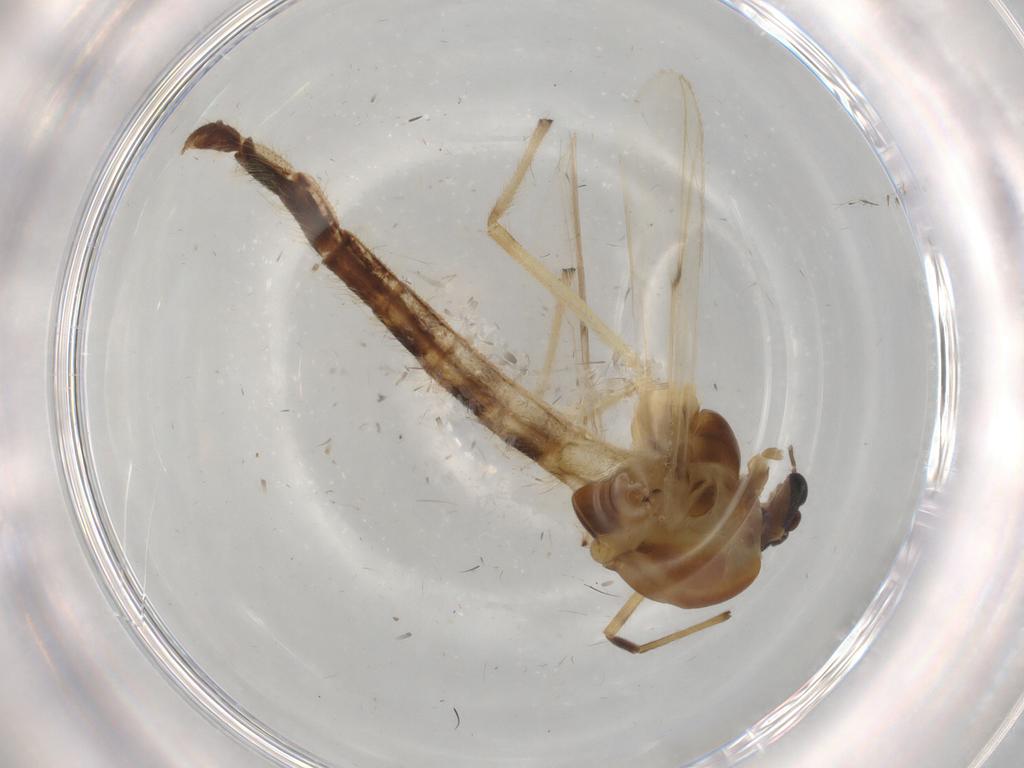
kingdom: Animalia
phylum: Arthropoda
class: Insecta
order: Diptera
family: Chironomidae
